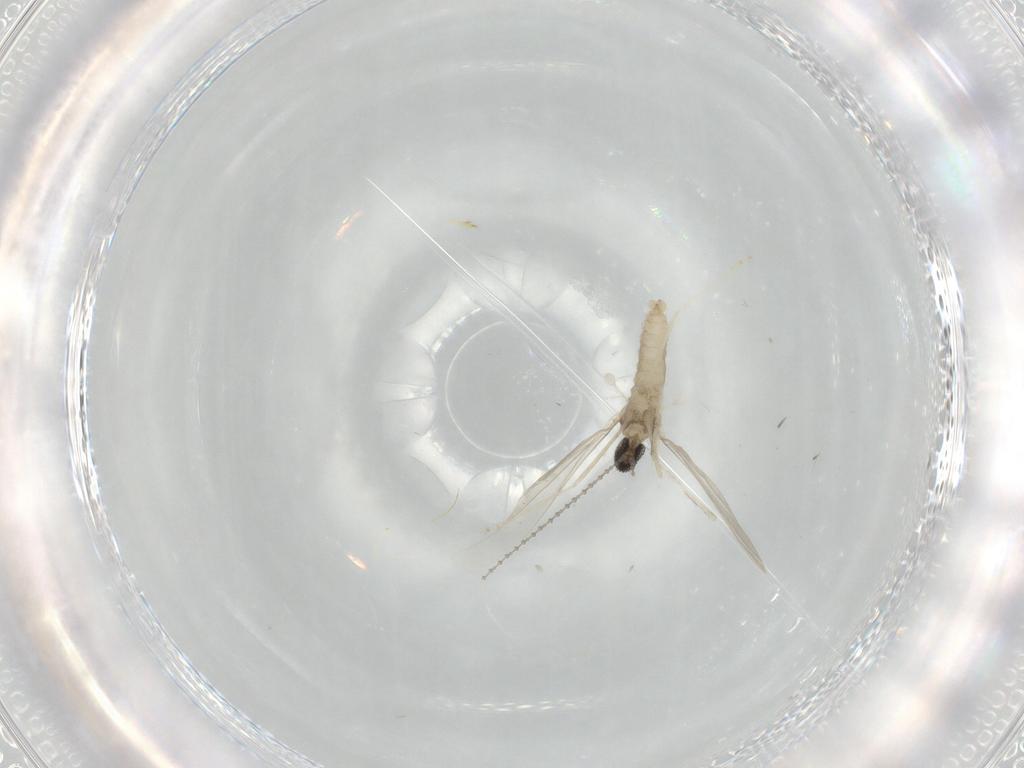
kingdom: Animalia
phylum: Arthropoda
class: Insecta
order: Diptera
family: Cecidomyiidae
